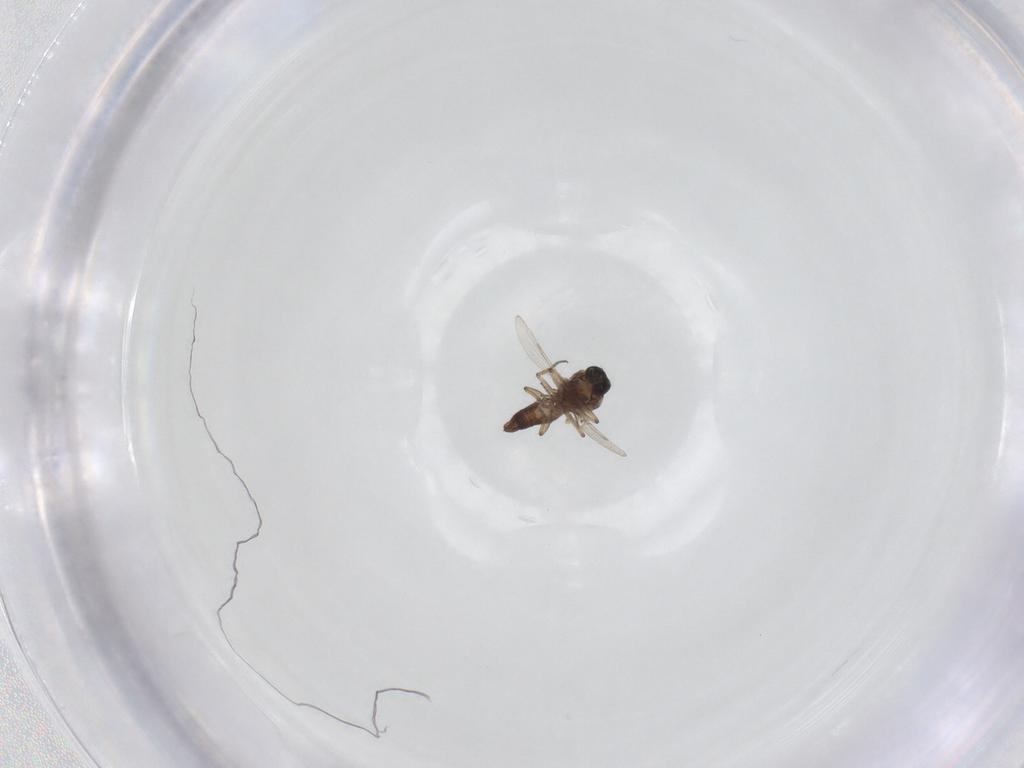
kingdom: Animalia
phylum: Arthropoda
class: Insecta
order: Diptera
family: Ceratopogonidae
